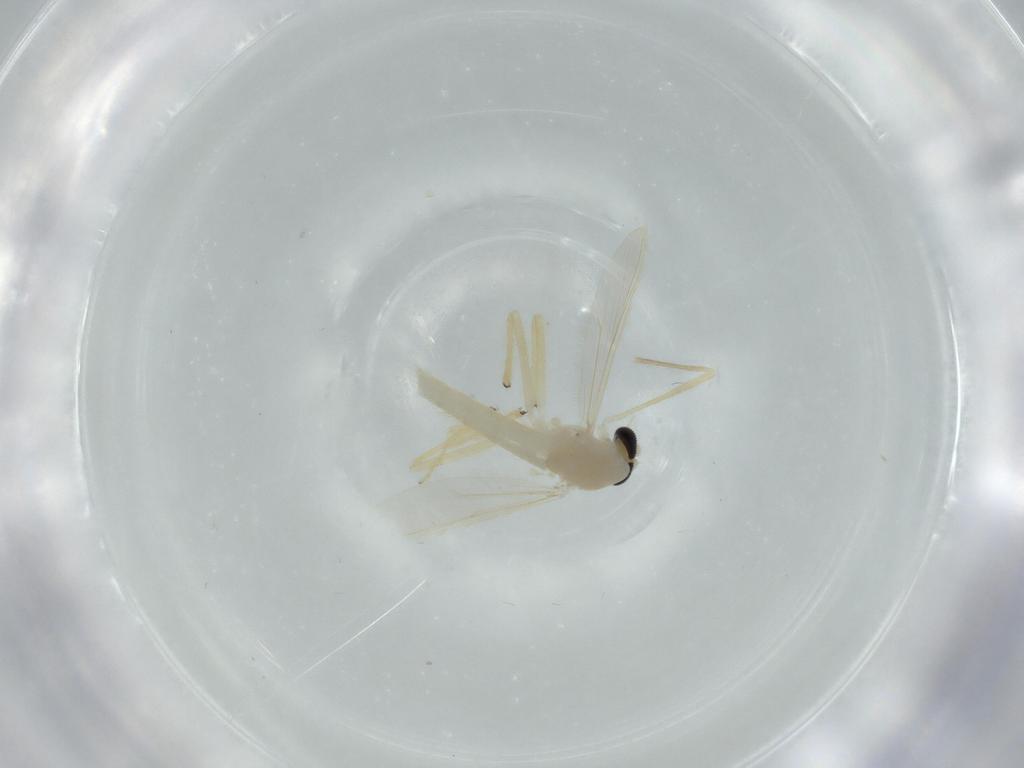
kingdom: Animalia
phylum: Arthropoda
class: Insecta
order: Diptera
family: Chironomidae
